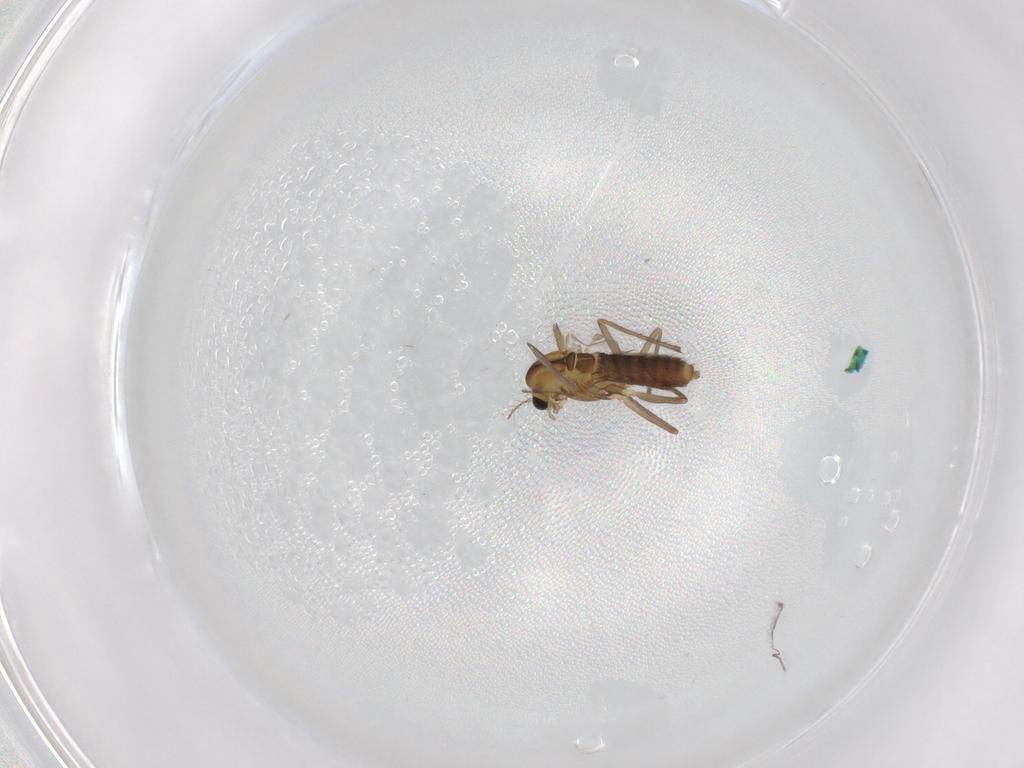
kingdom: Animalia
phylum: Arthropoda
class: Insecta
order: Diptera
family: Chironomidae
